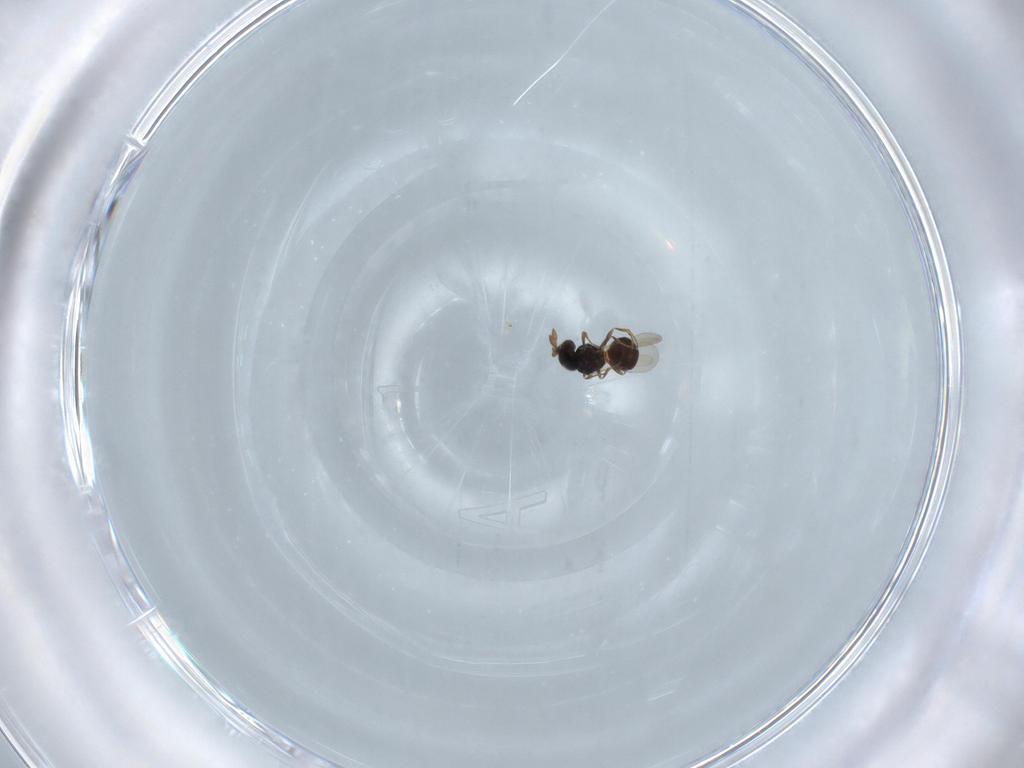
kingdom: Animalia
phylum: Arthropoda
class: Insecta
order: Hymenoptera
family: Scelionidae
